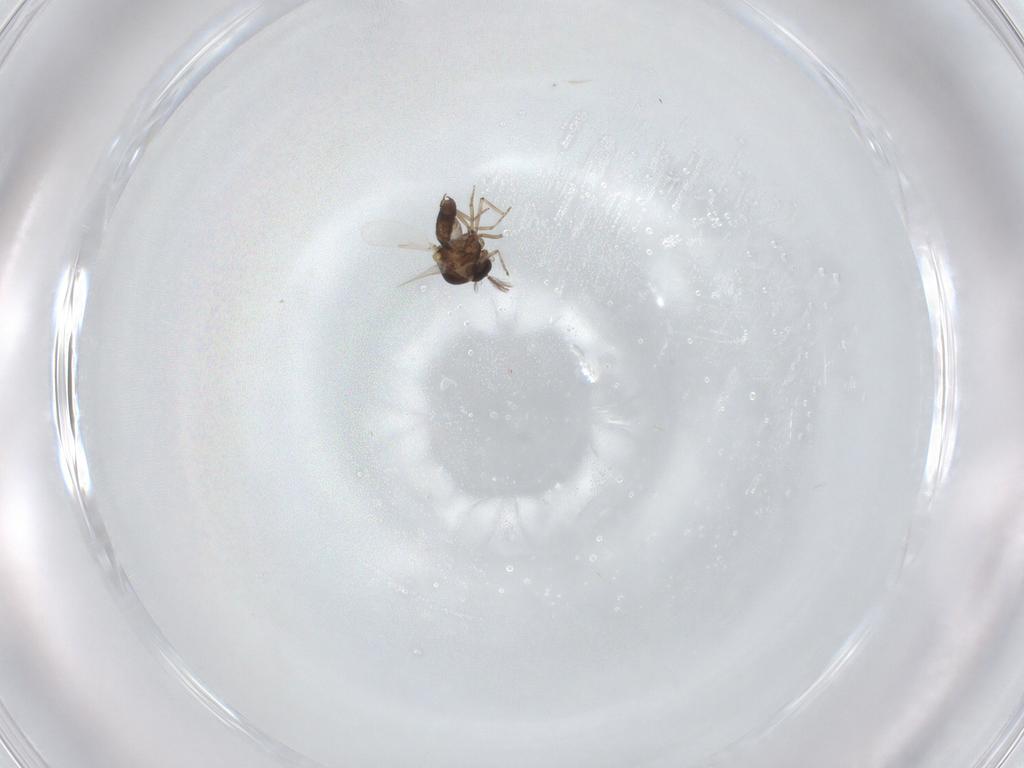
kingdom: Animalia
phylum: Arthropoda
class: Insecta
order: Diptera
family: Ceratopogonidae
